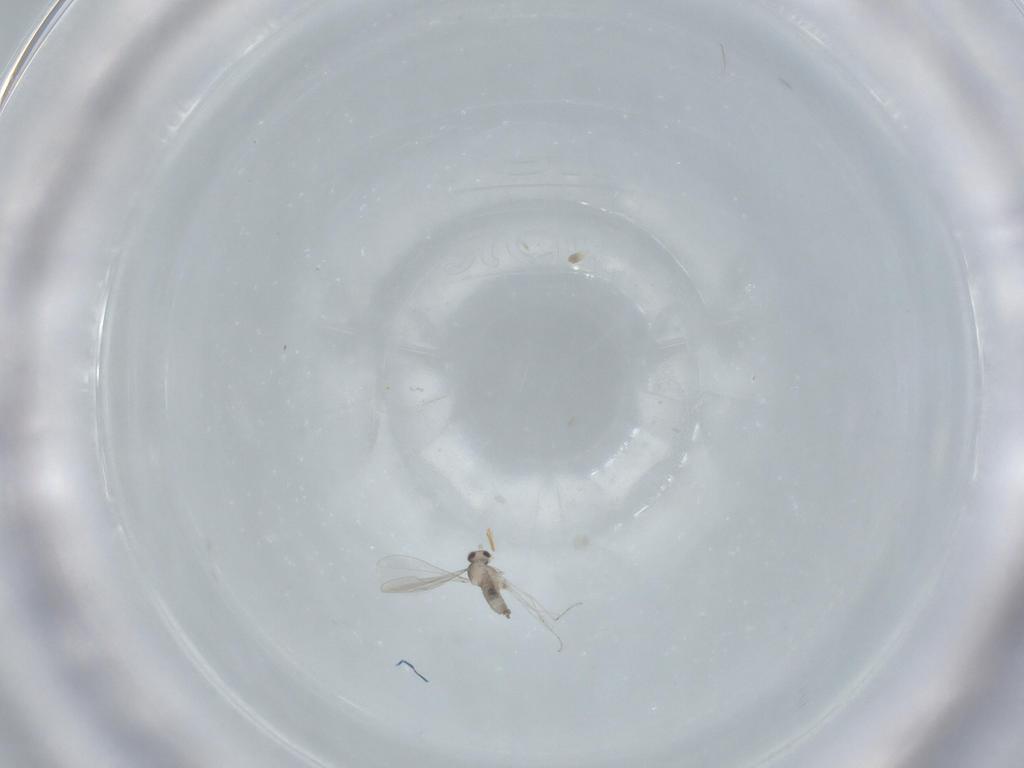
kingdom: Animalia
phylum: Arthropoda
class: Insecta
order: Diptera
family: Cecidomyiidae
